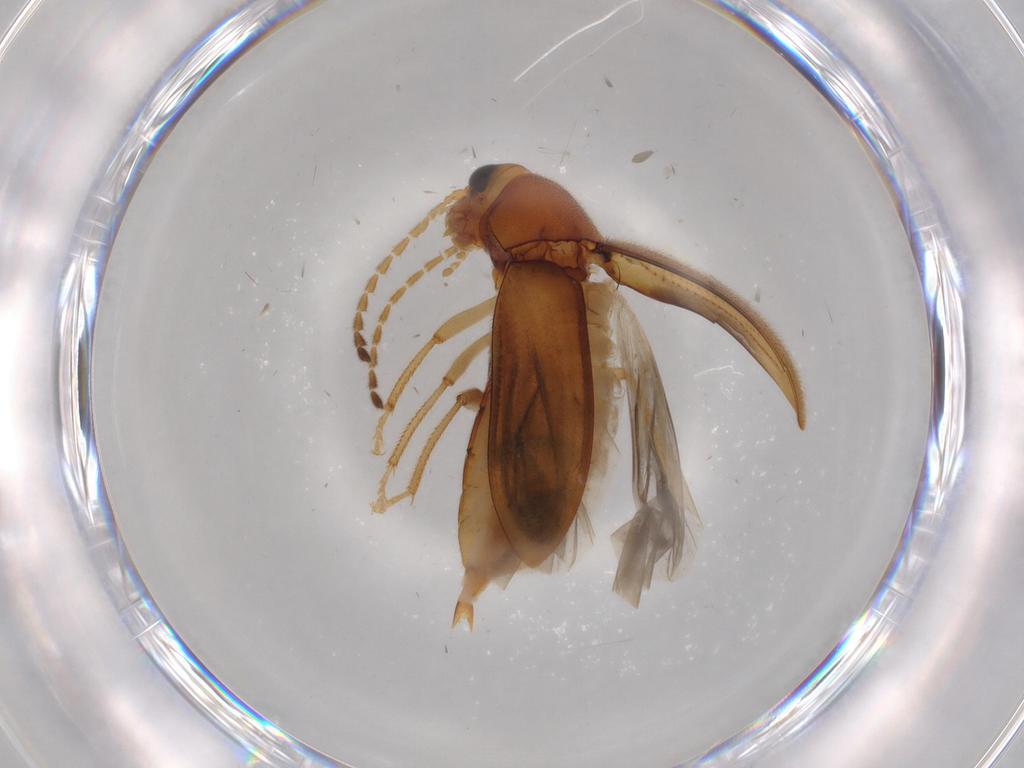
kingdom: Animalia
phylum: Arthropoda
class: Insecta
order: Coleoptera
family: Ptilodactylidae
